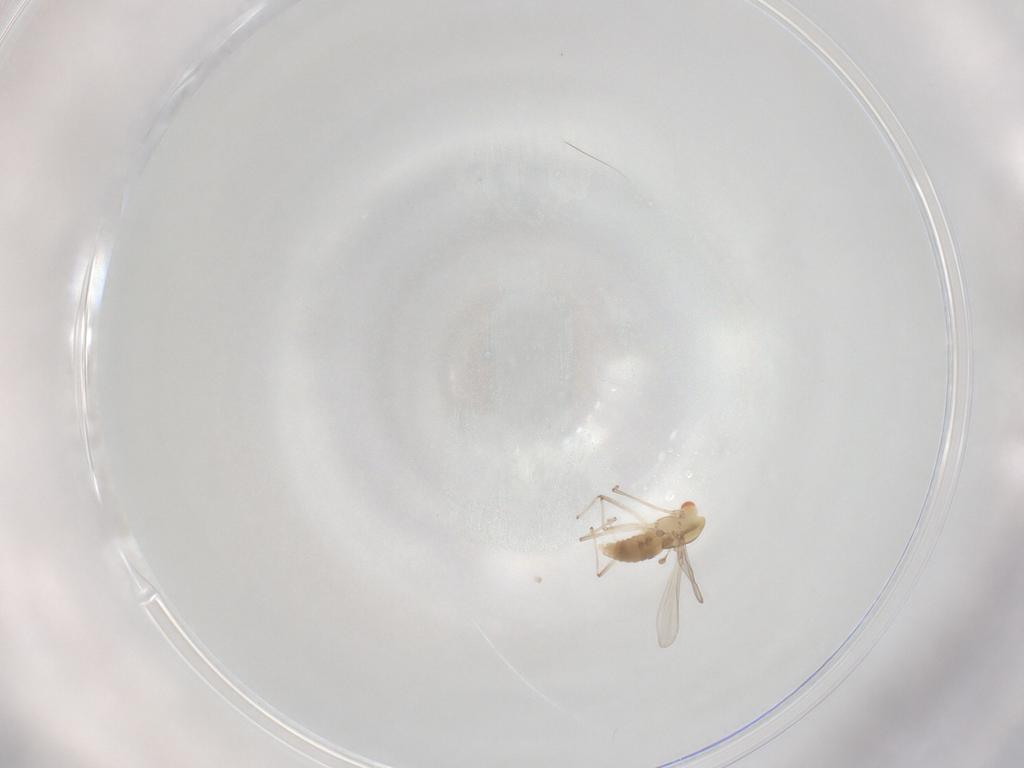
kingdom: Animalia
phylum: Arthropoda
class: Insecta
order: Diptera
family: Chironomidae
